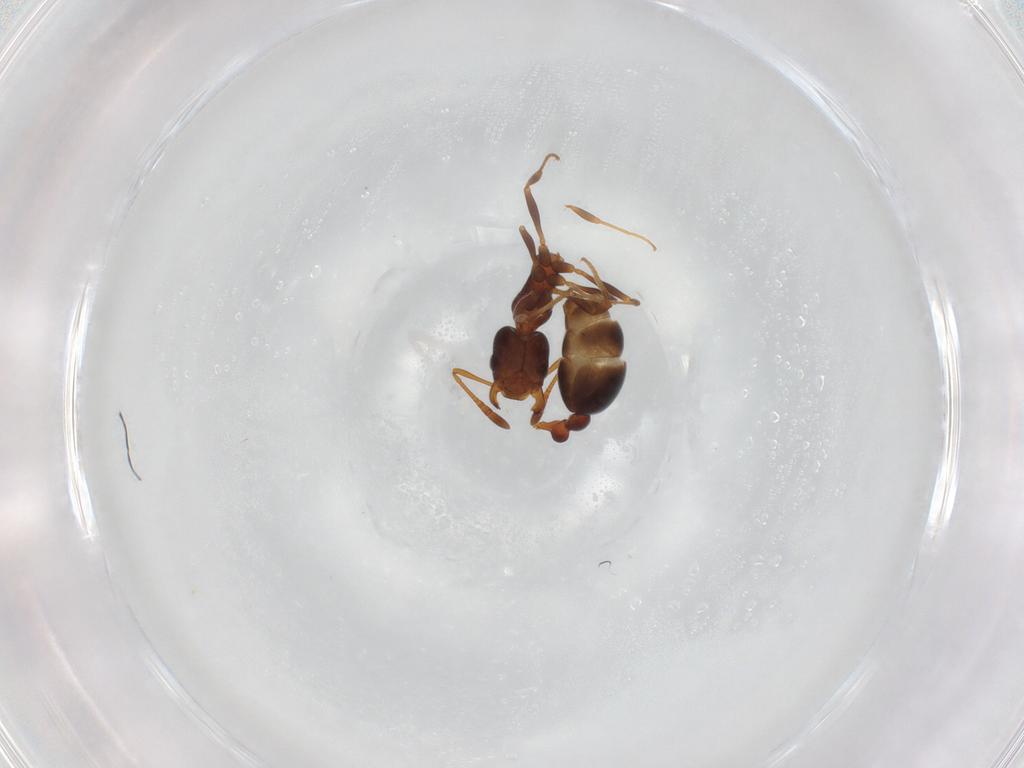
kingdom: Animalia
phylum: Arthropoda
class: Insecta
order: Hymenoptera
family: Scelionidae
